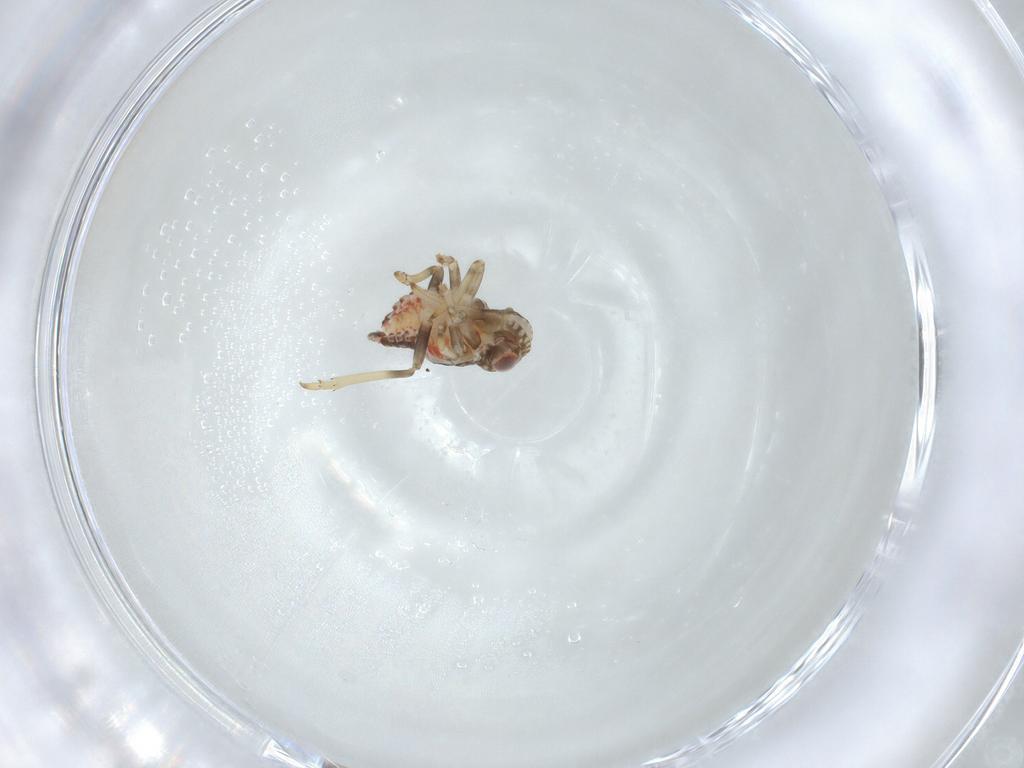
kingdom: Animalia
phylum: Arthropoda
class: Insecta
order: Hemiptera
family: Tropiduchidae
